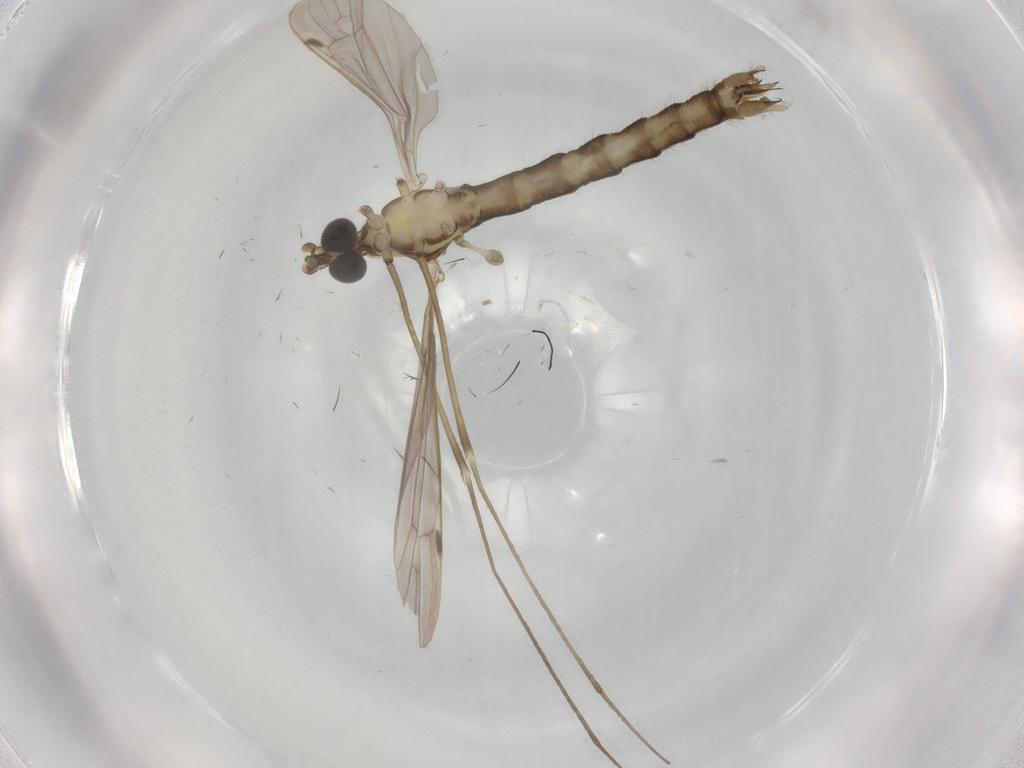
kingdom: Animalia
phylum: Arthropoda
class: Insecta
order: Diptera
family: Limoniidae
